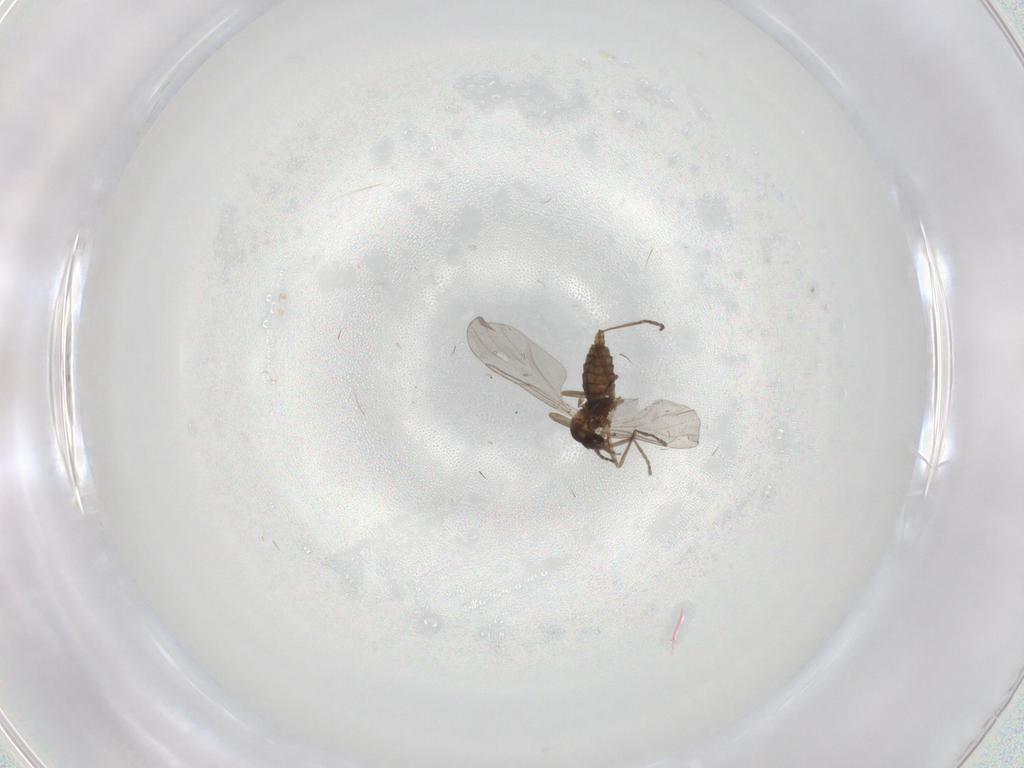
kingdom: Animalia
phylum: Arthropoda
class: Insecta
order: Diptera
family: Cecidomyiidae
